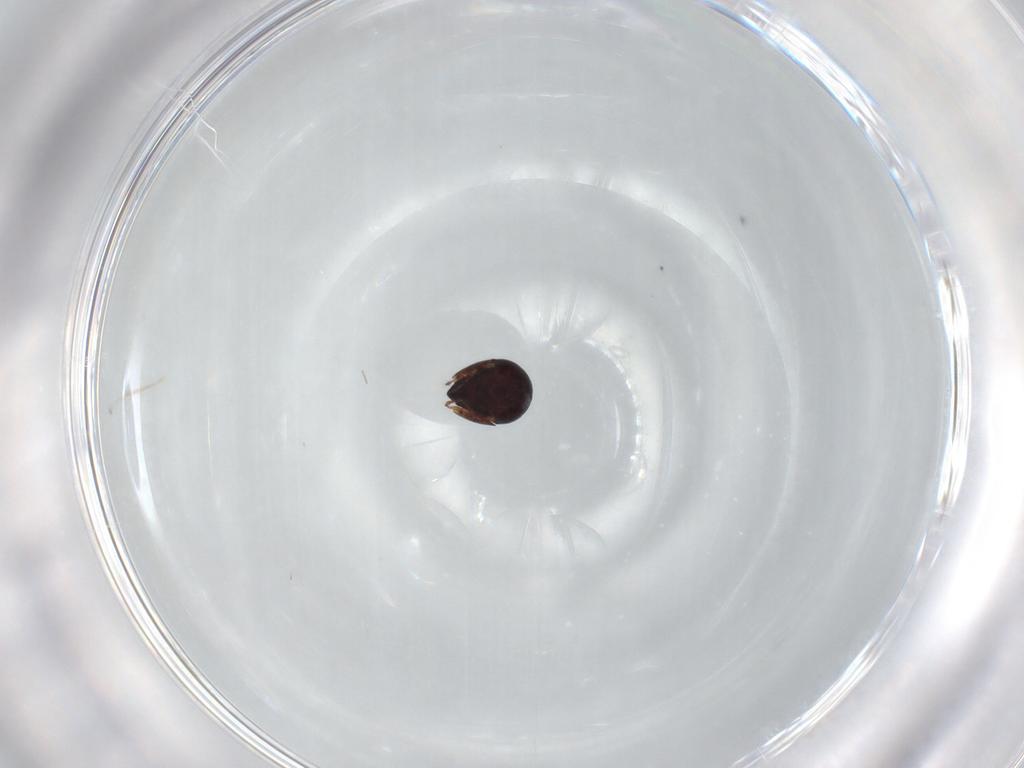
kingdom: Animalia
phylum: Arthropoda
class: Arachnida
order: Sarcoptiformes
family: Ceratozetidae
